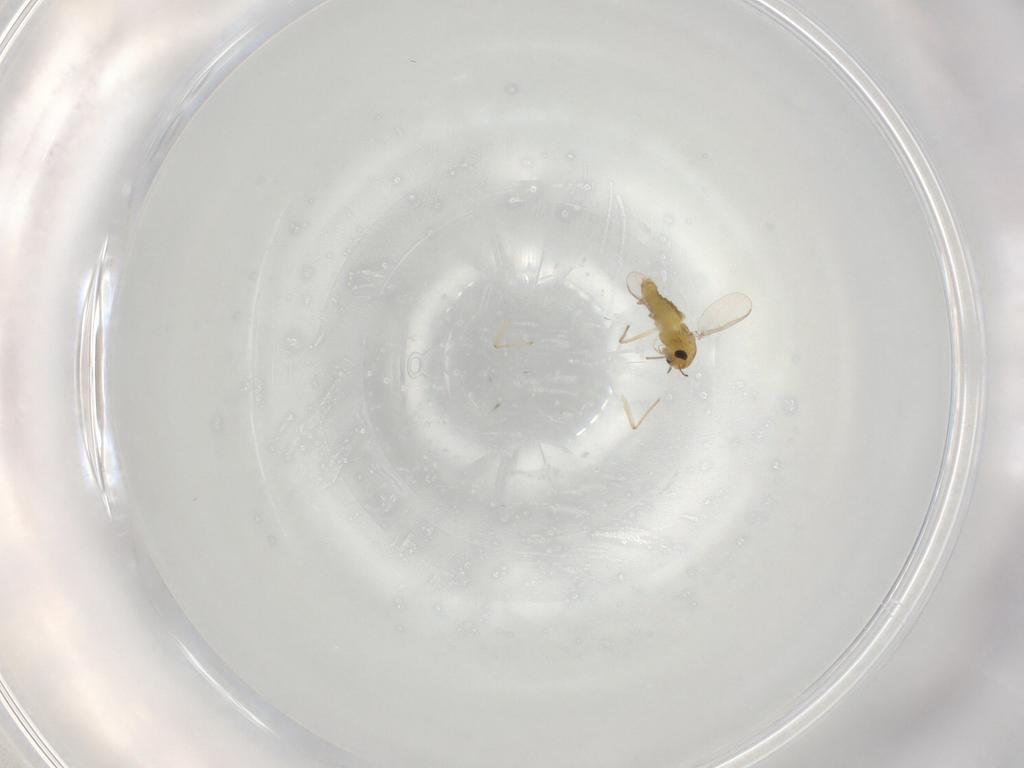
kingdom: Animalia
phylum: Arthropoda
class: Insecta
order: Diptera
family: Chironomidae
